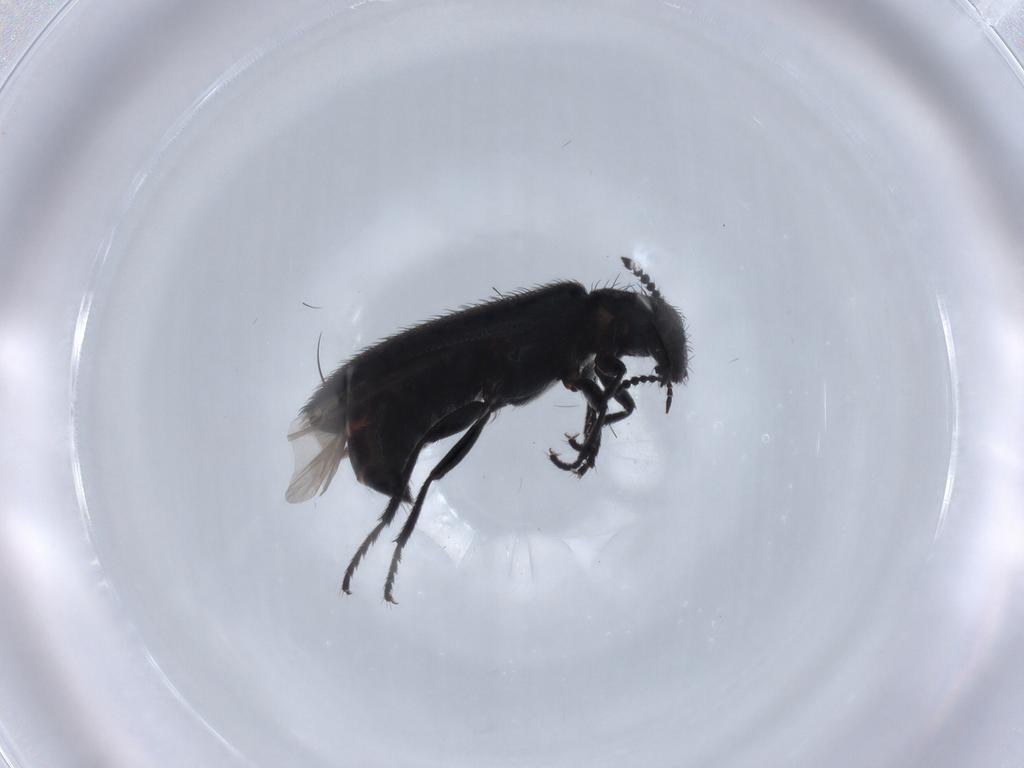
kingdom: Animalia
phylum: Arthropoda
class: Insecta
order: Coleoptera
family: Melyridae
